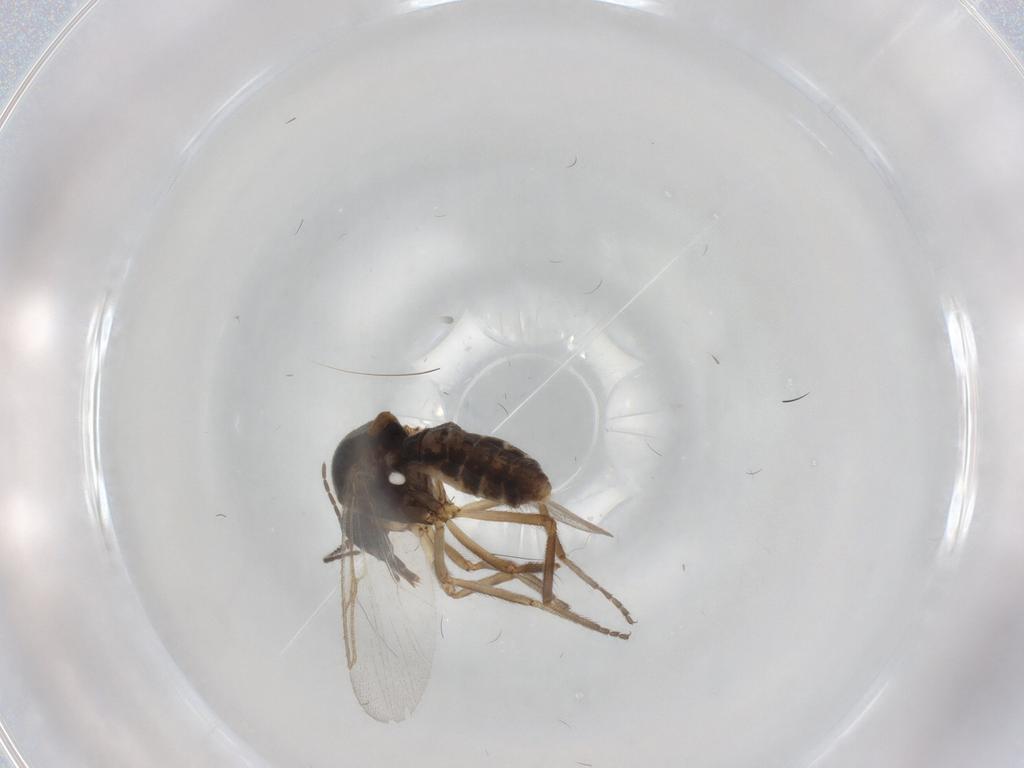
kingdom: Animalia
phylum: Arthropoda
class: Insecta
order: Diptera
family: Ceratopogonidae
